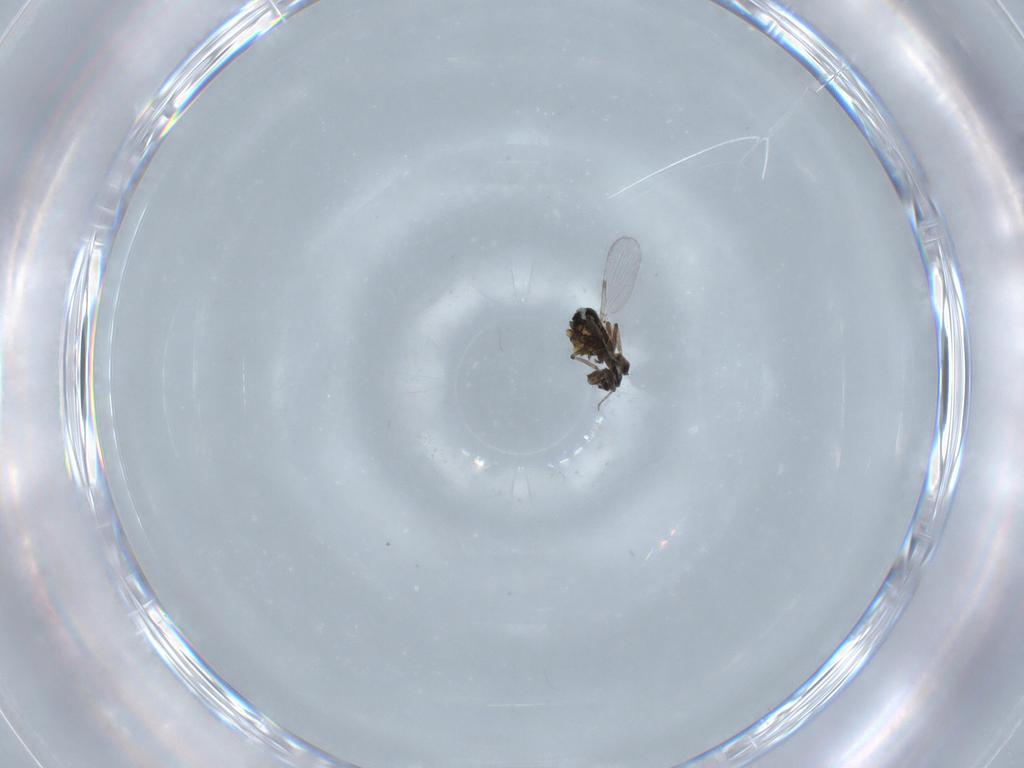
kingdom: Animalia
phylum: Arthropoda
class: Insecta
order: Diptera
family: Ceratopogonidae
